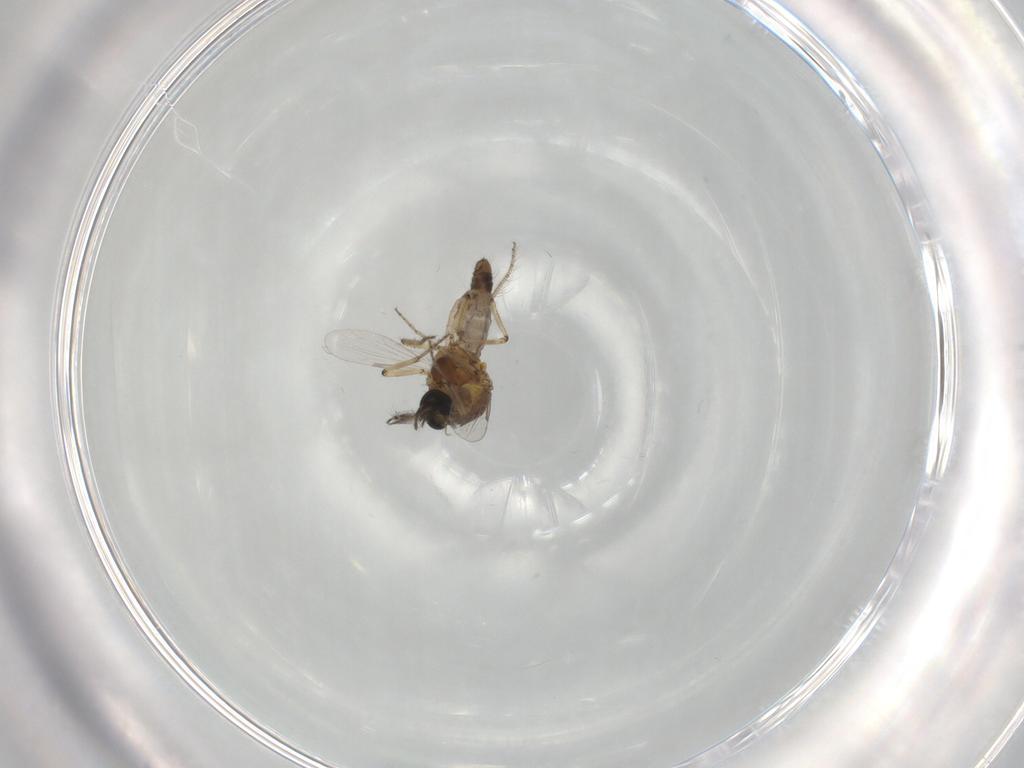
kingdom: Animalia
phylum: Arthropoda
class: Insecta
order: Diptera
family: Ceratopogonidae
